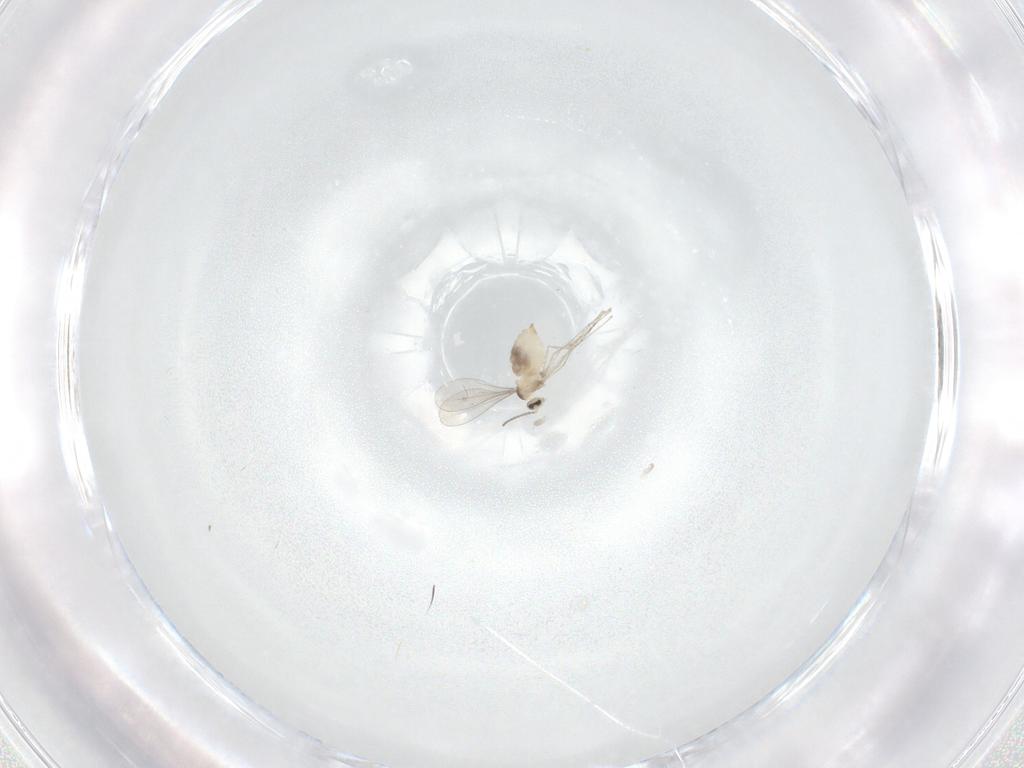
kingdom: Animalia
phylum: Arthropoda
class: Insecta
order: Diptera
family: Cecidomyiidae
